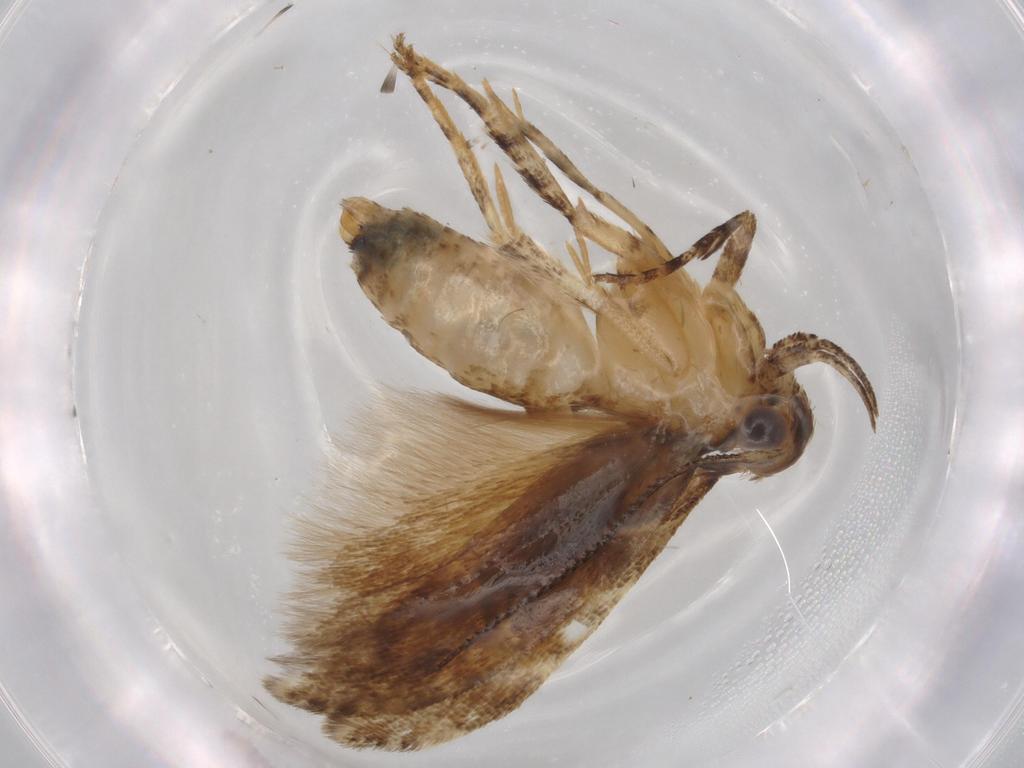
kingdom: Animalia
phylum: Arthropoda
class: Insecta
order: Lepidoptera
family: Gelechiidae
